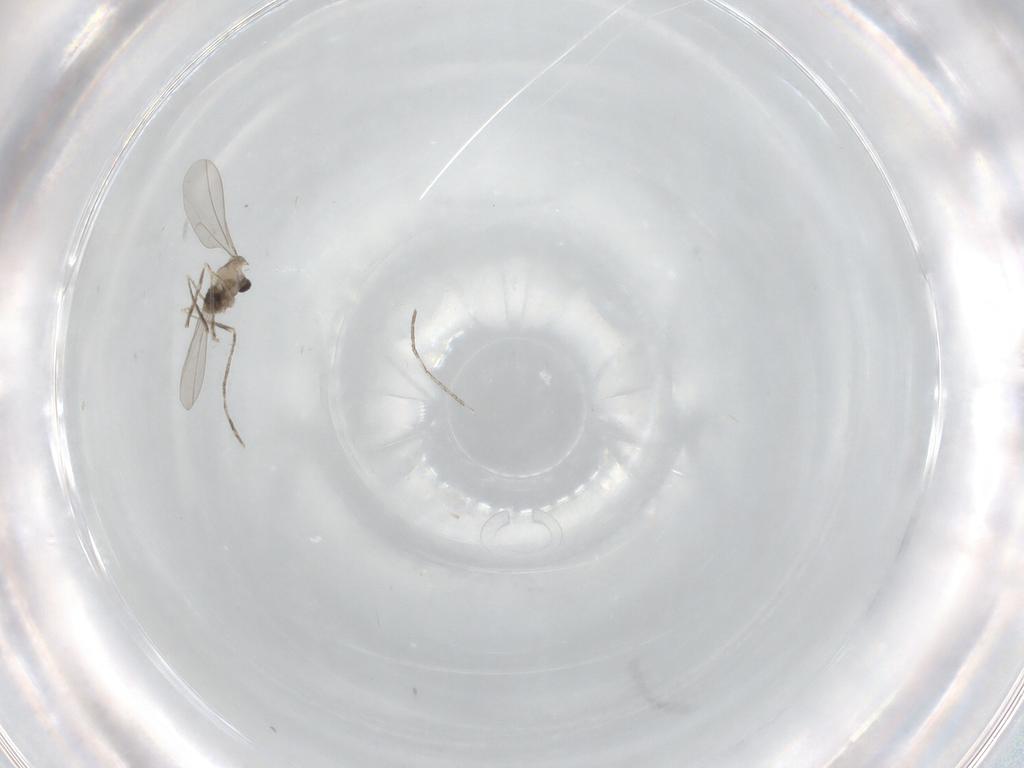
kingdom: Animalia
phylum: Arthropoda
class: Insecta
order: Diptera
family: Cecidomyiidae
